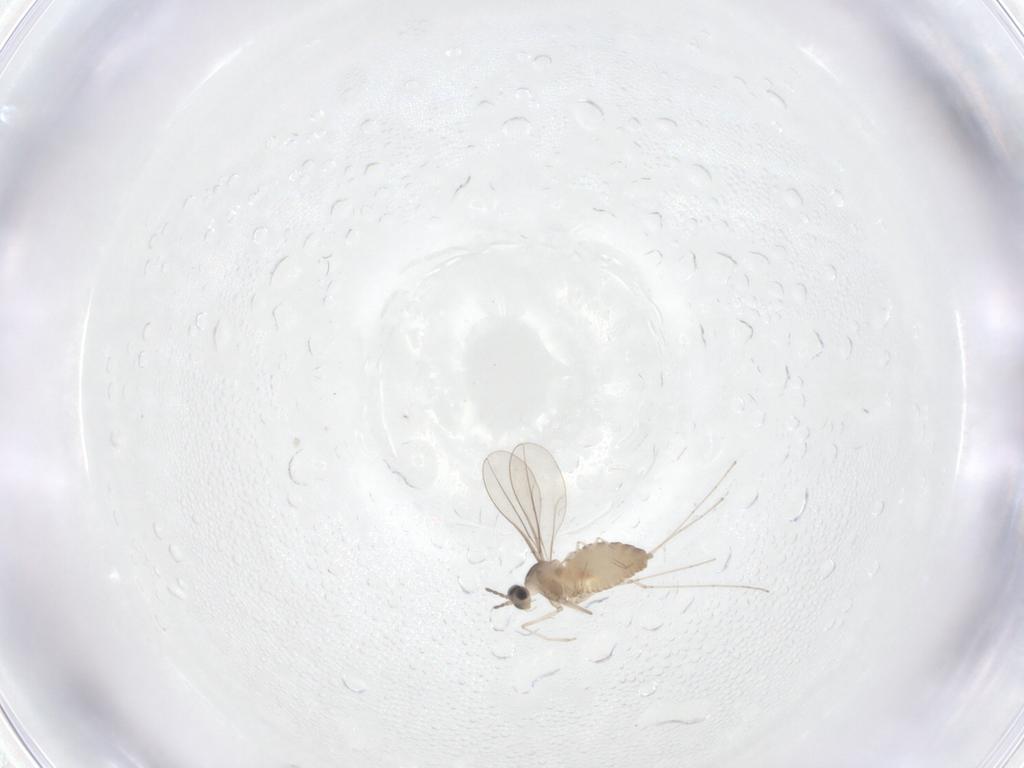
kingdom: Animalia
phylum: Arthropoda
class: Insecta
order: Diptera
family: Cecidomyiidae
